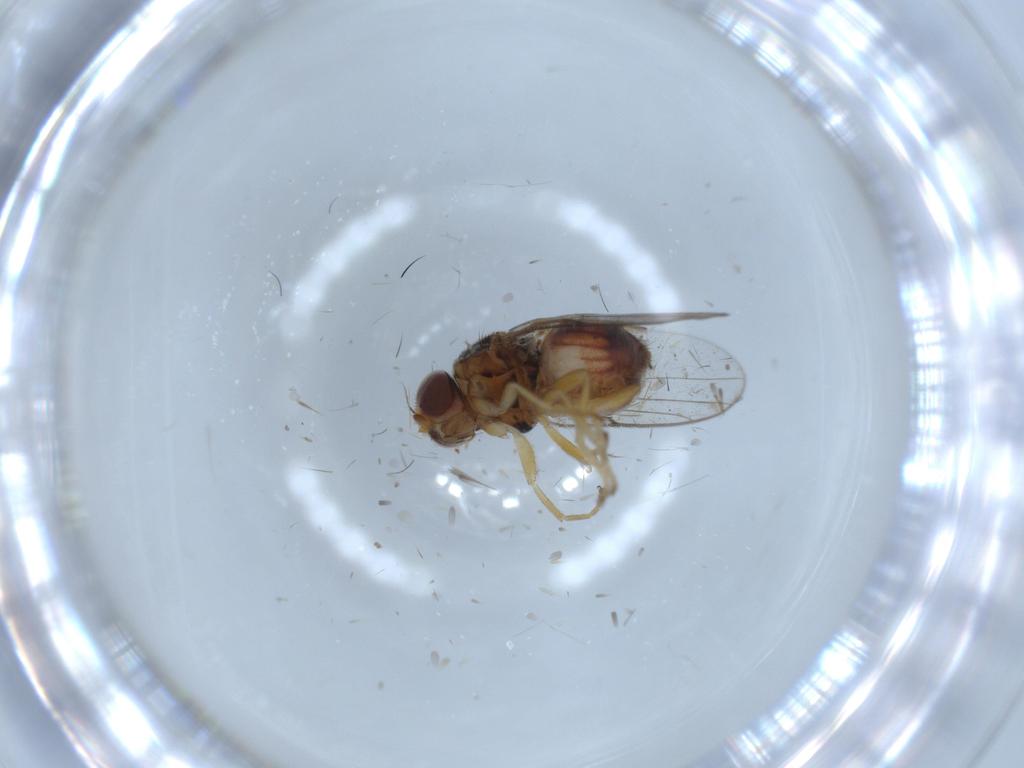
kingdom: Animalia
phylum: Arthropoda
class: Insecta
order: Diptera
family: Chloropidae
